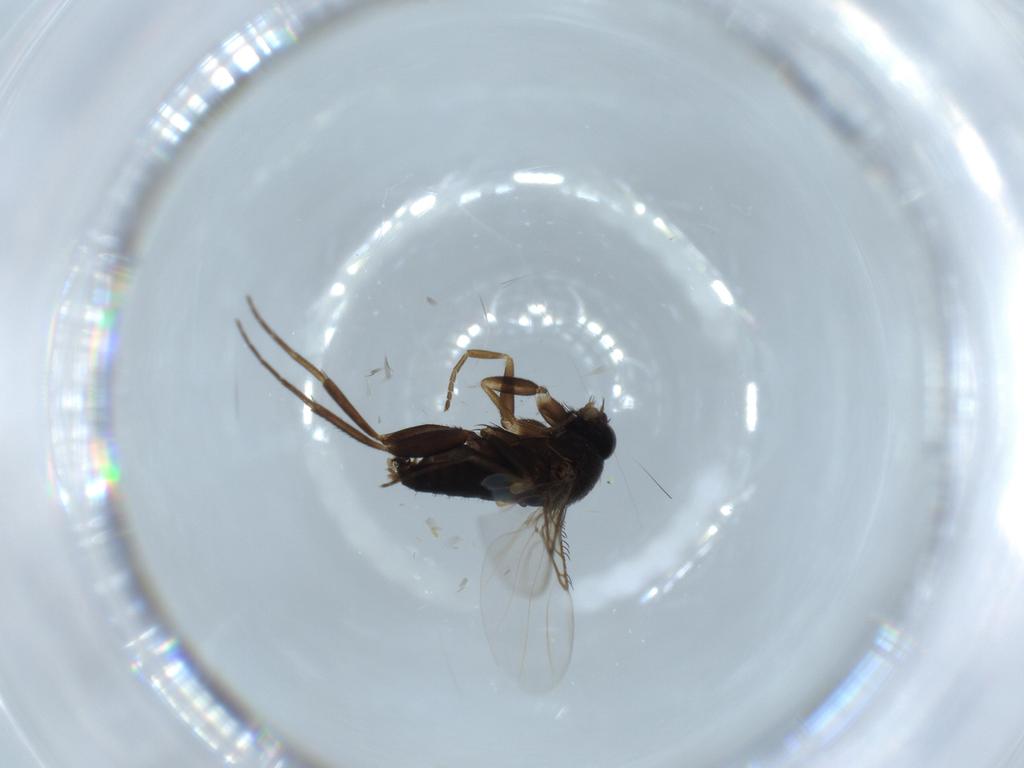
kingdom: Animalia
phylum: Arthropoda
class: Insecta
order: Diptera
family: Phoridae
